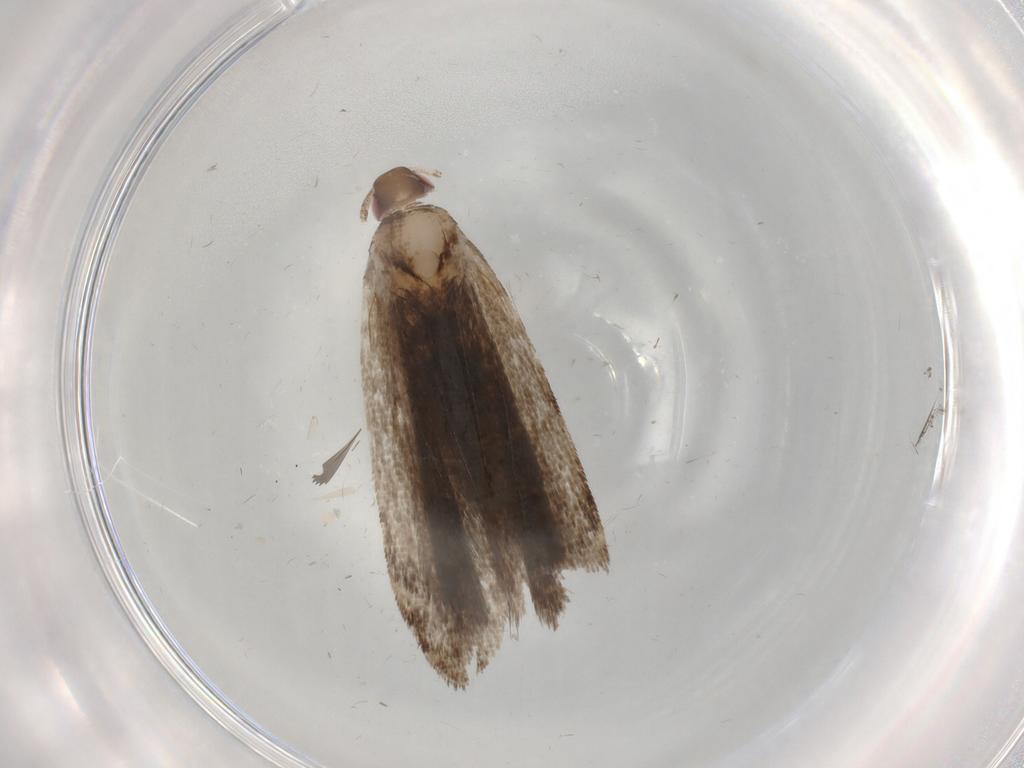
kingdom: Animalia
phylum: Arthropoda
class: Insecta
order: Lepidoptera
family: Gelechiidae
